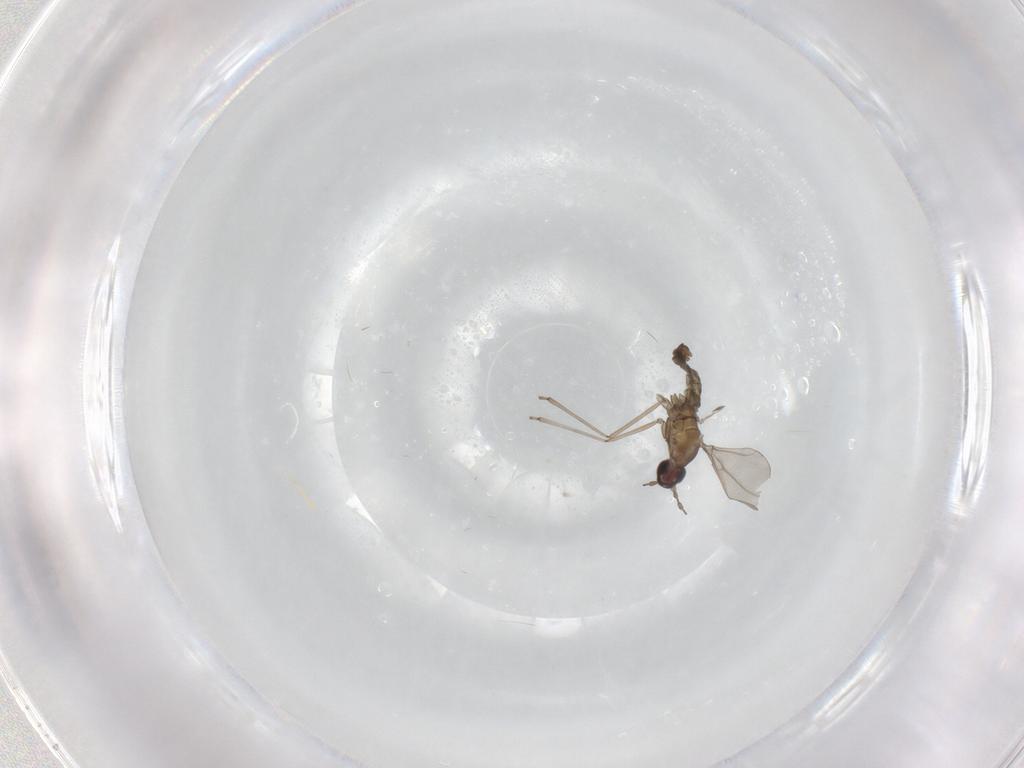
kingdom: Animalia
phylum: Arthropoda
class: Insecta
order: Diptera
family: Limoniidae
